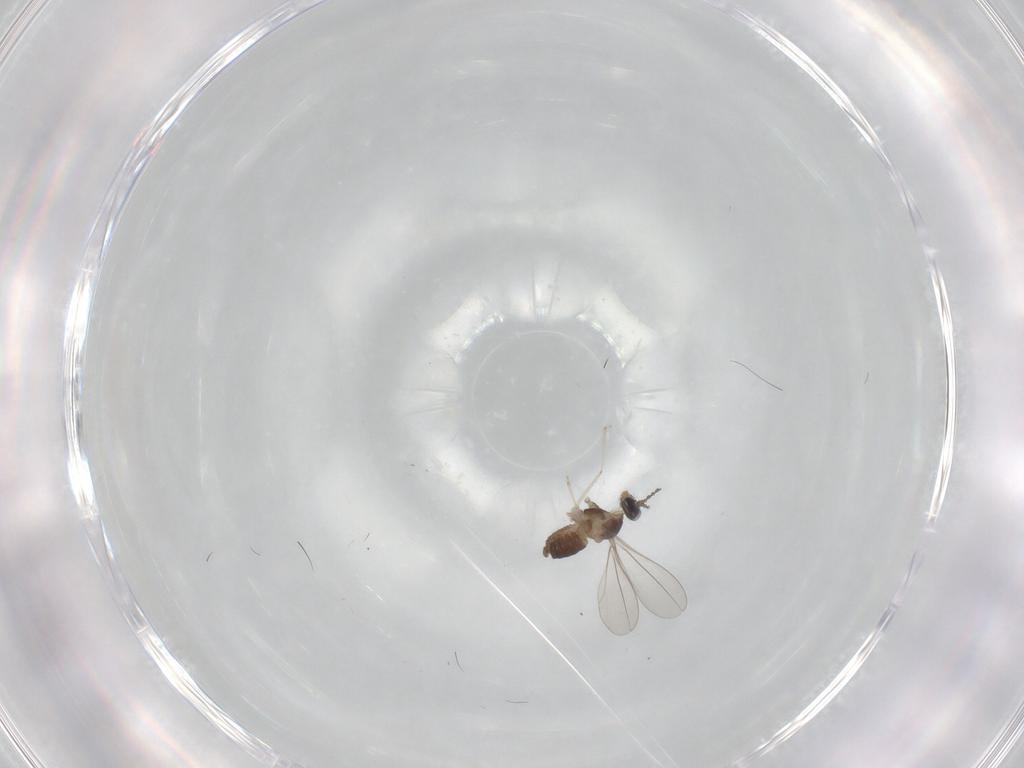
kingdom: Animalia
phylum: Arthropoda
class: Insecta
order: Diptera
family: Cecidomyiidae
